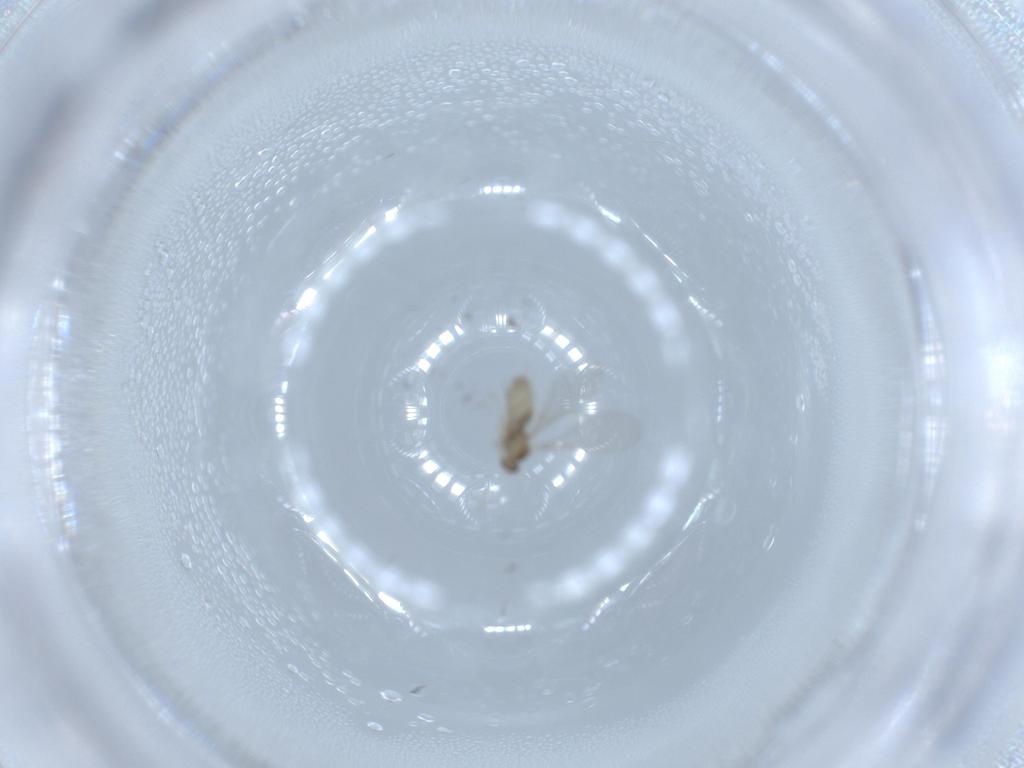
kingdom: Animalia
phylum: Arthropoda
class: Insecta
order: Diptera
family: Cecidomyiidae
